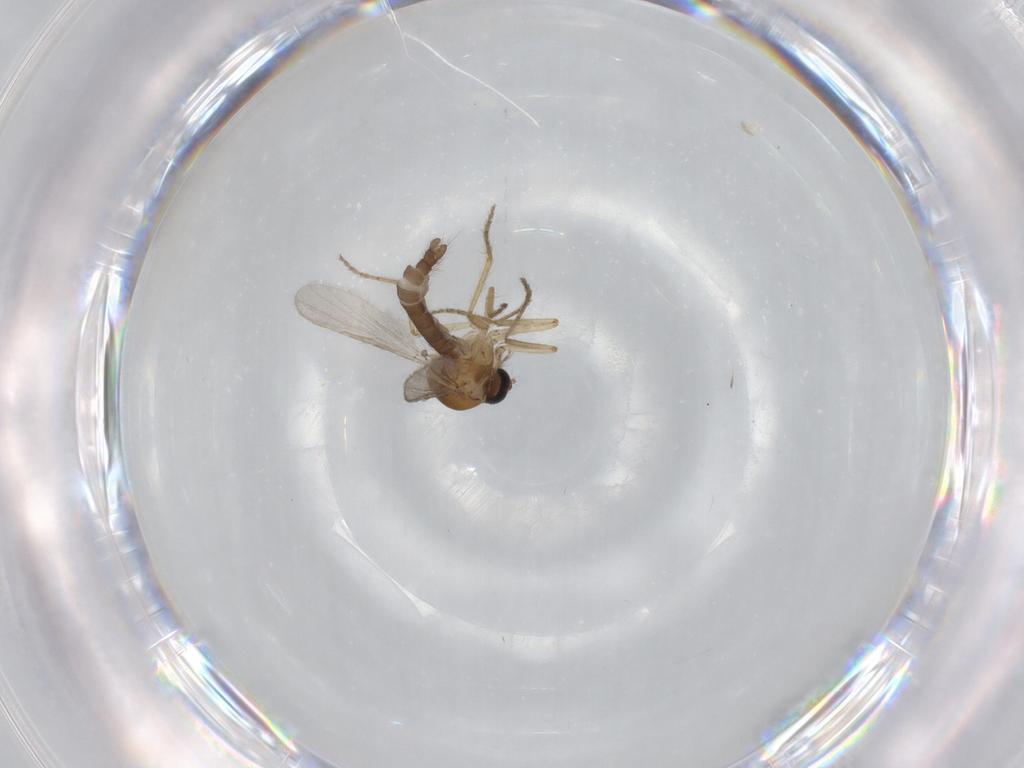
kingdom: Animalia
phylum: Arthropoda
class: Insecta
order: Diptera
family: Ceratopogonidae
